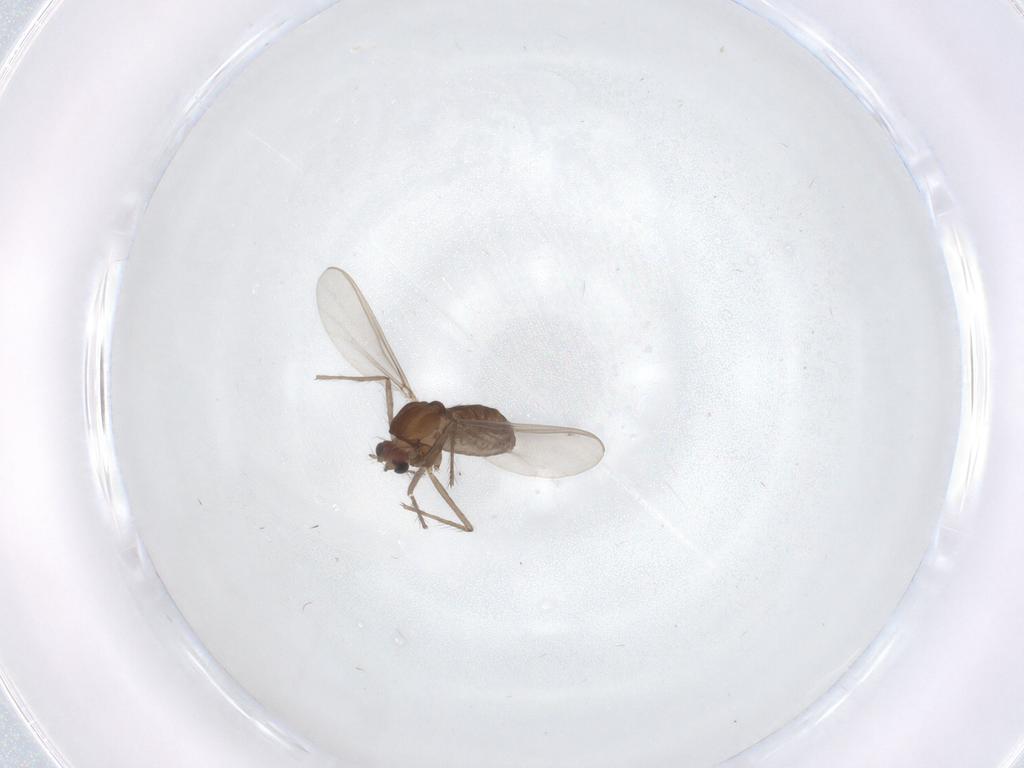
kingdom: Animalia
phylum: Arthropoda
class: Insecta
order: Diptera
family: Chironomidae
